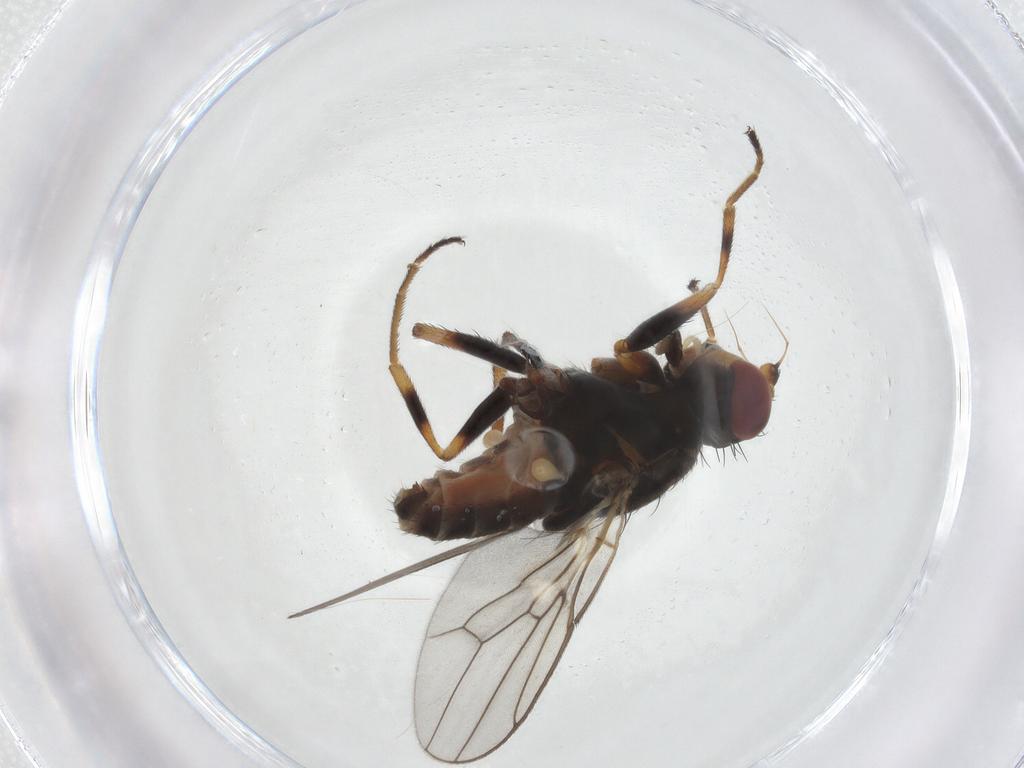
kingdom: Animalia
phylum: Arthropoda
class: Insecta
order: Diptera
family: Chloropidae
